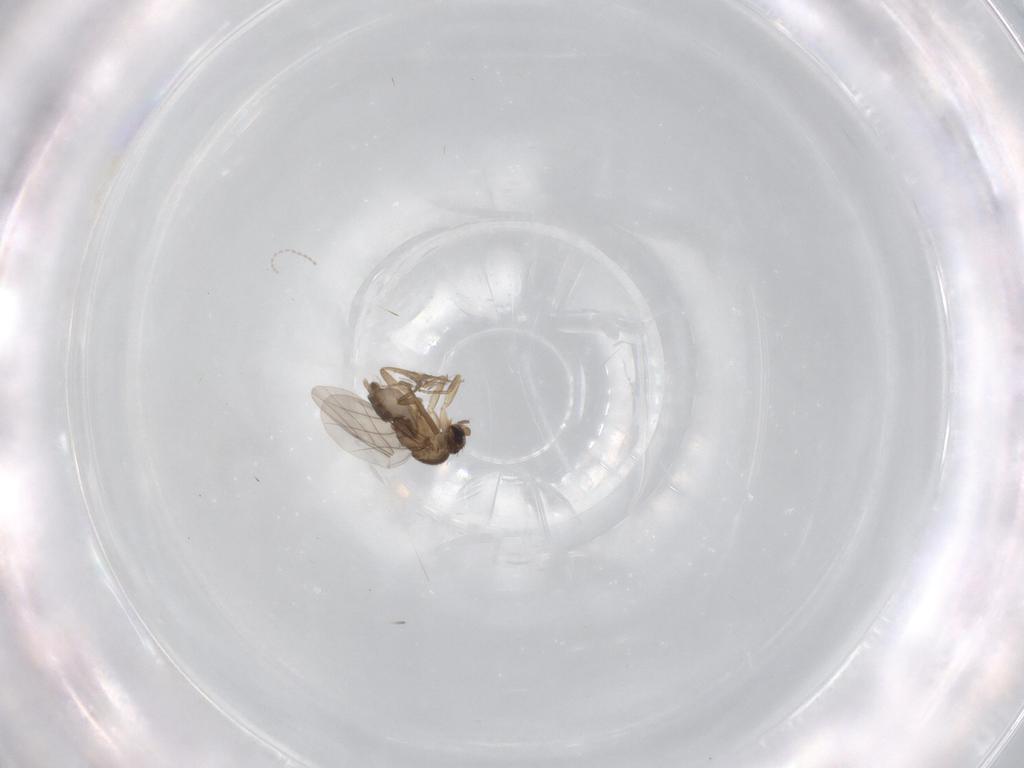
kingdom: Animalia
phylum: Arthropoda
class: Insecta
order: Diptera
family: Phoridae
